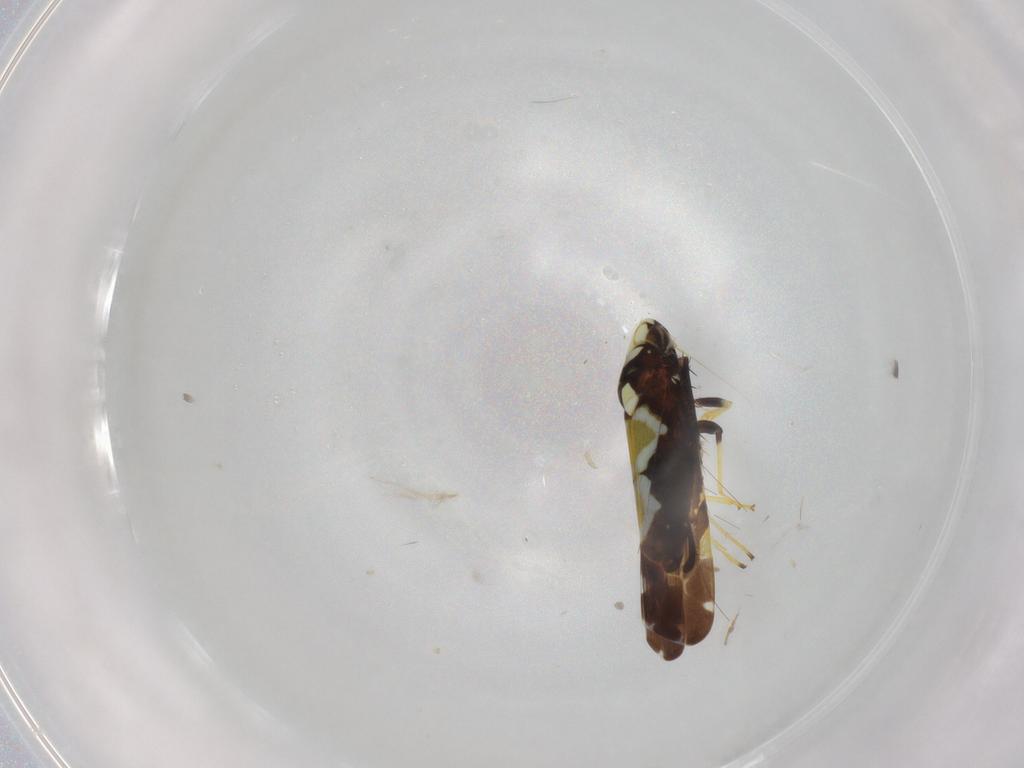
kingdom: Animalia
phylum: Arthropoda
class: Insecta
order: Hemiptera
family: Cicadellidae
